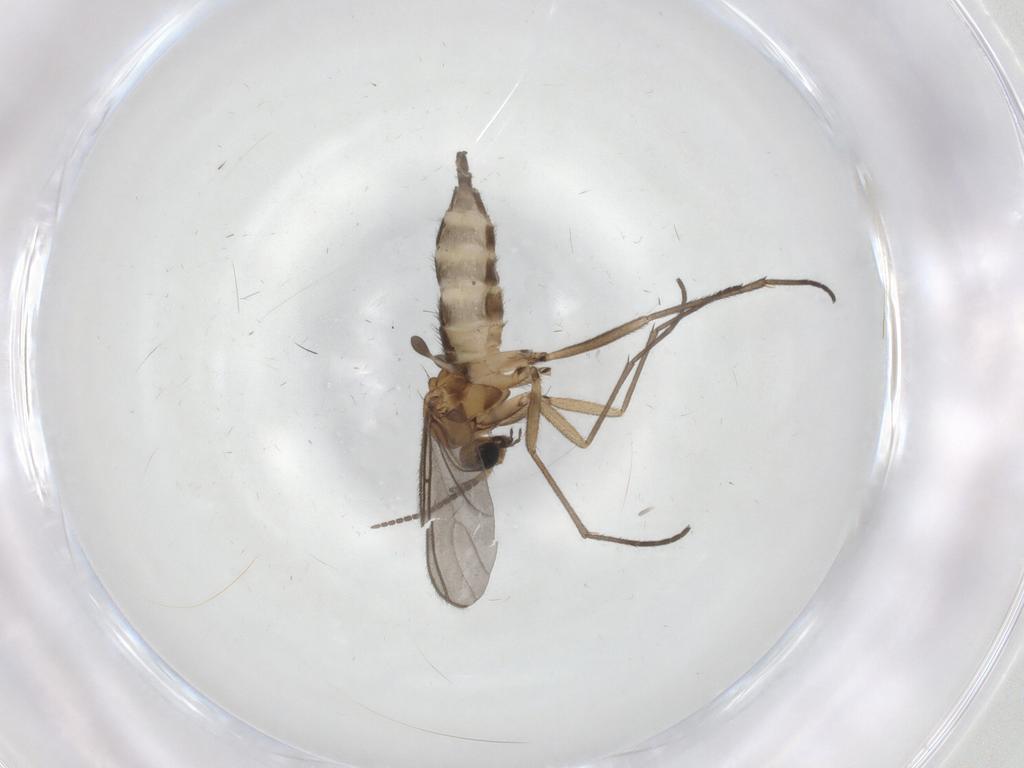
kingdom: Animalia
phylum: Arthropoda
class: Insecta
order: Diptera
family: Sciaridae
